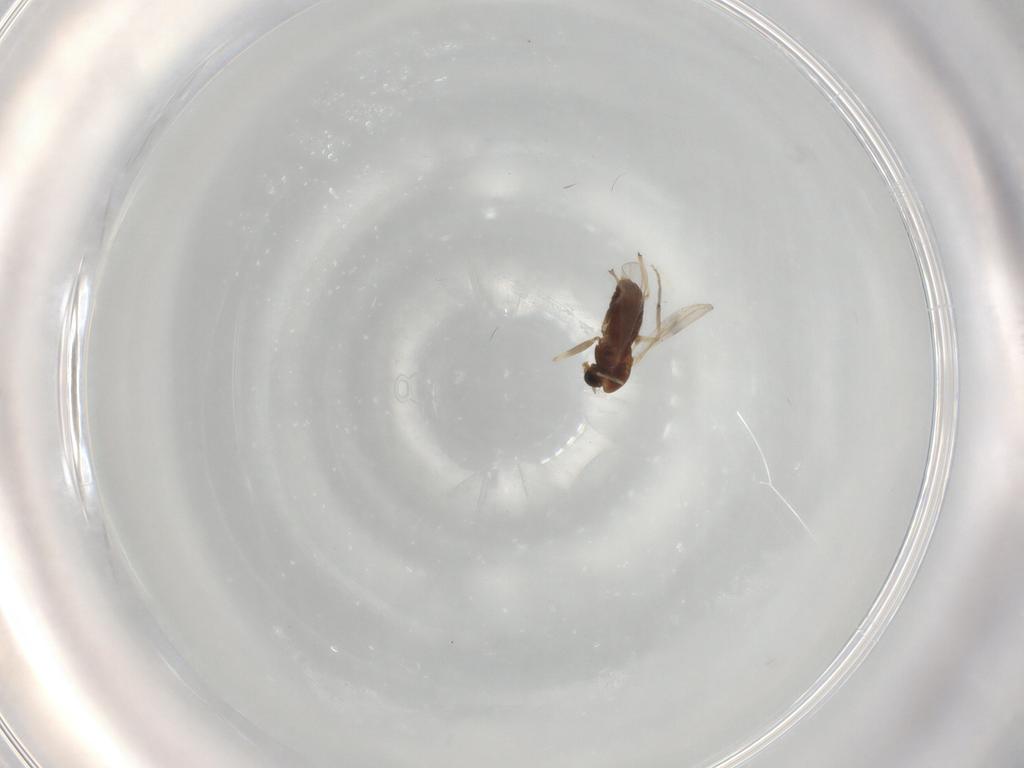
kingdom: Animalia
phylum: Arthropoda
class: Insecta
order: Diptera
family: Chironomidae
